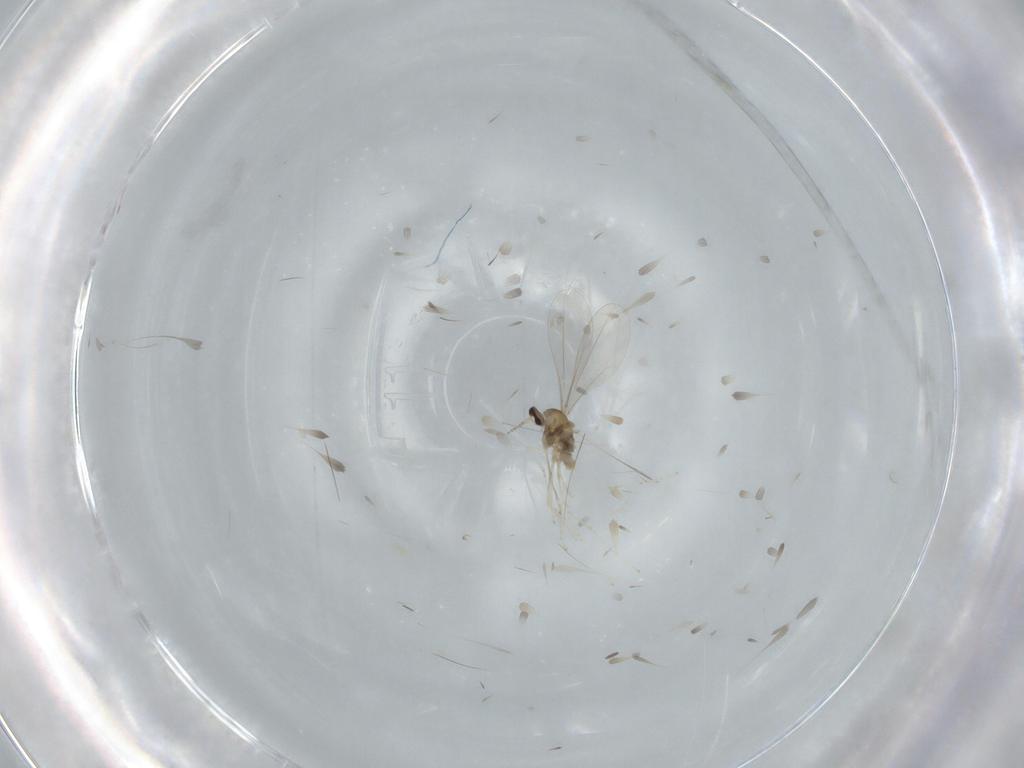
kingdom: Animalia
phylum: Arthropoda
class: Insecta
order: Diptera
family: Cecidomyiidae
